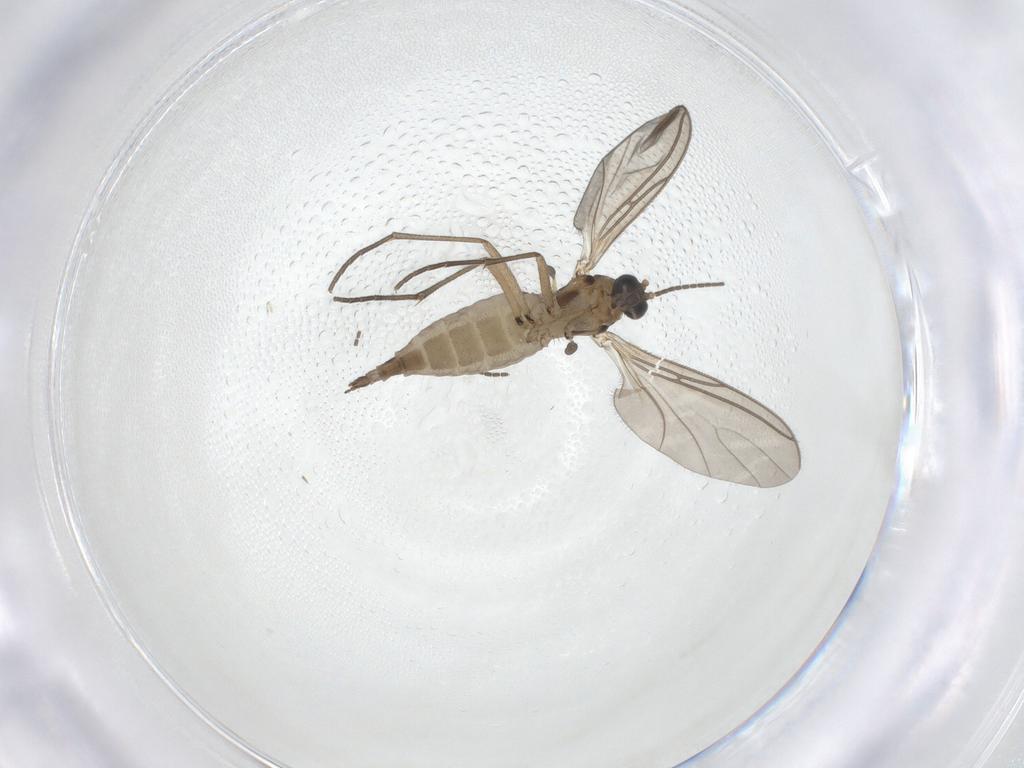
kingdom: Animalia
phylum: Arthropoda
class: Insecta
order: Diptera
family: Sciaridae
